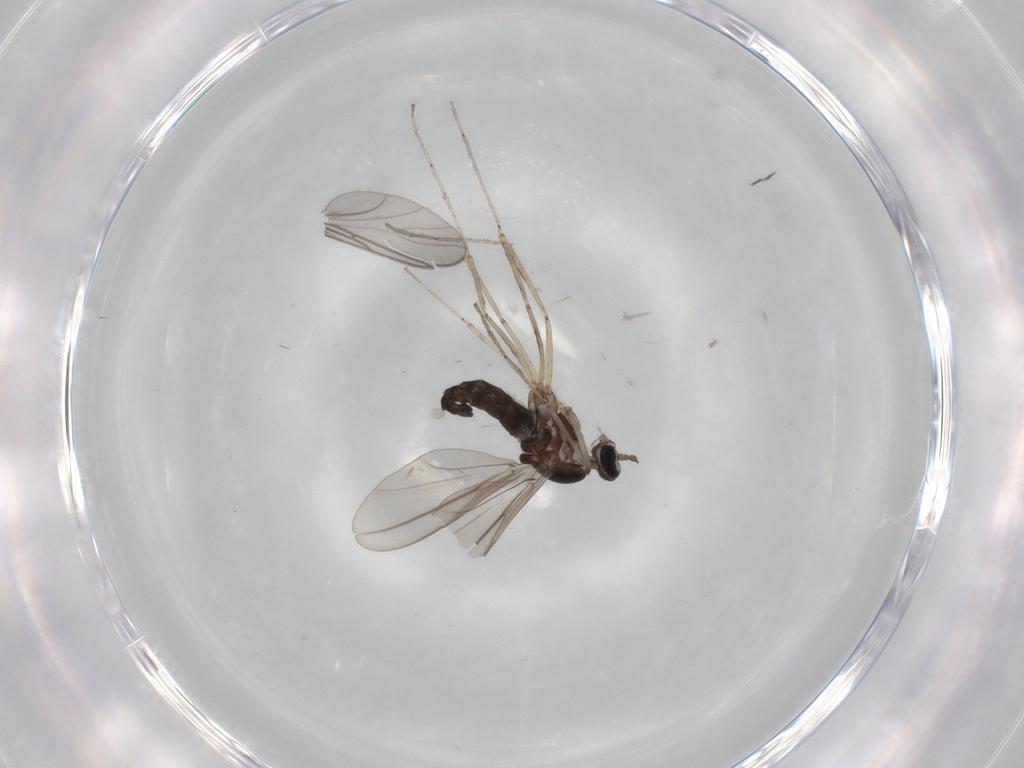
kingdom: Animalia
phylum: Arthropoda
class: Insecta
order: Diptera
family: Cecidomyiidae
